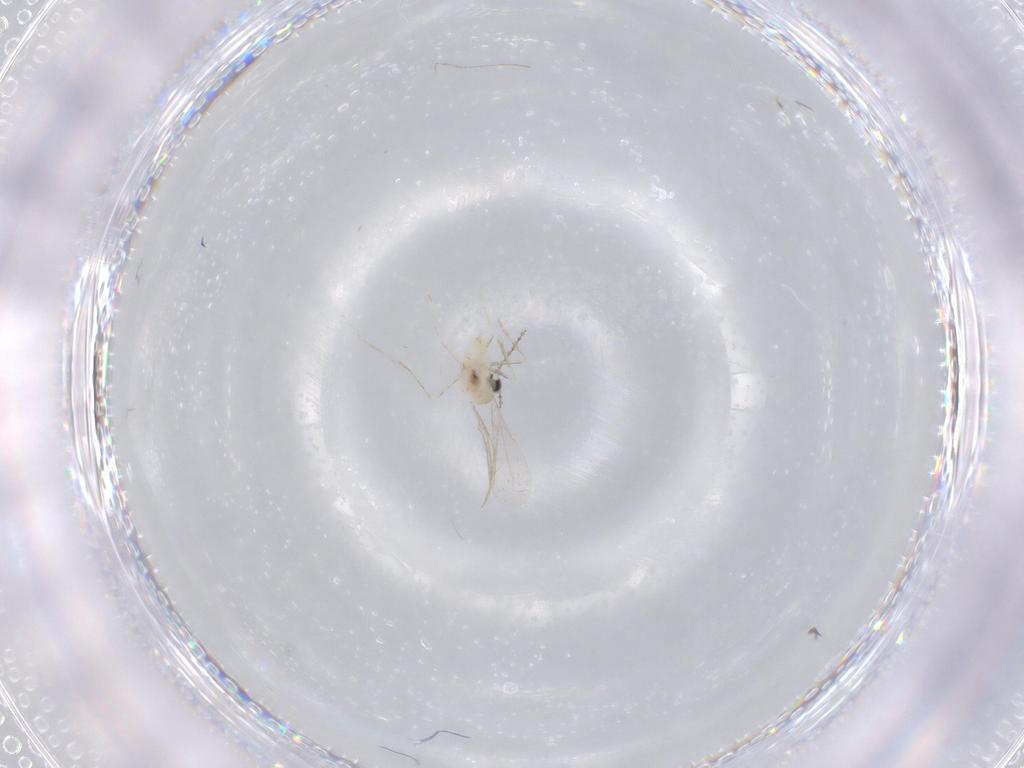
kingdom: Animalia
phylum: Arthropoda
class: Insecta
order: Diptera
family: Cecidomyiidae
